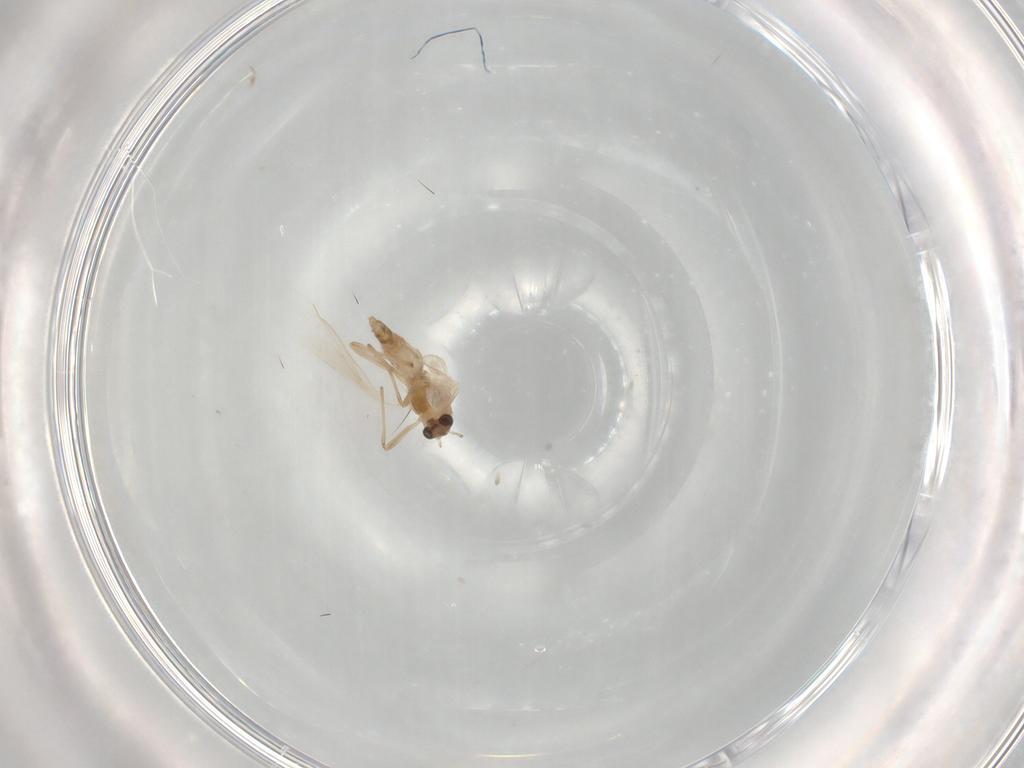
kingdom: Animalia
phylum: Arthropoda
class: Insecta
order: Diptera
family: Chironomidae
